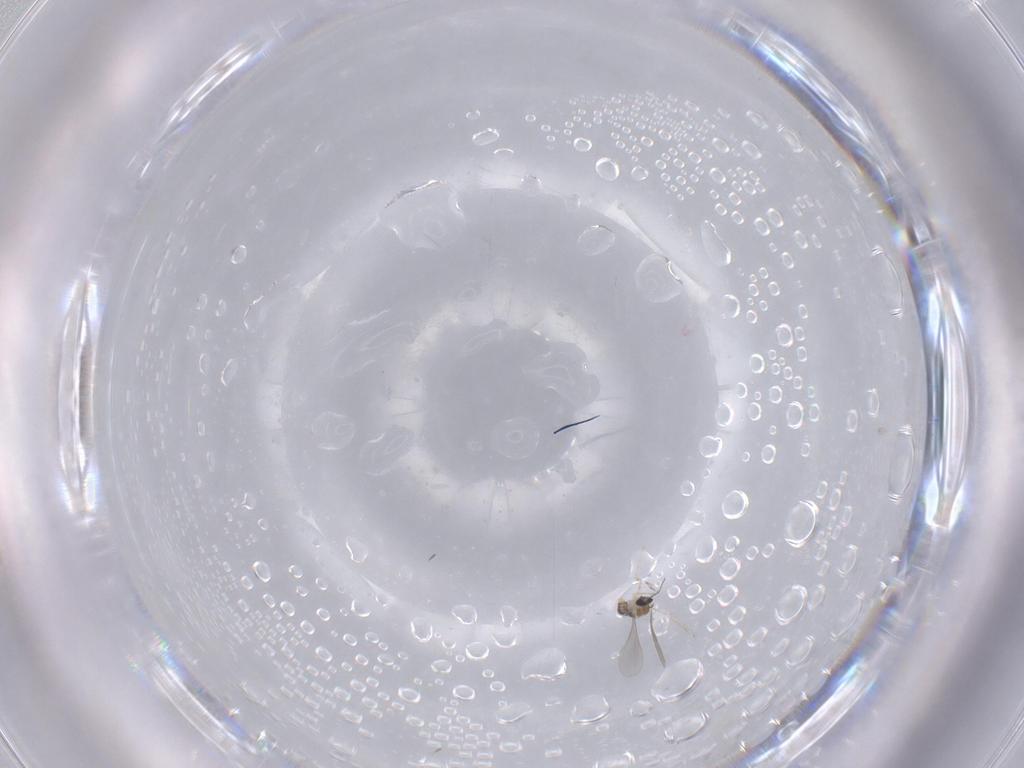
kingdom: Animalia
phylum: Arthropoda
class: Insecta
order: Diptera
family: Cecidomyiidae
